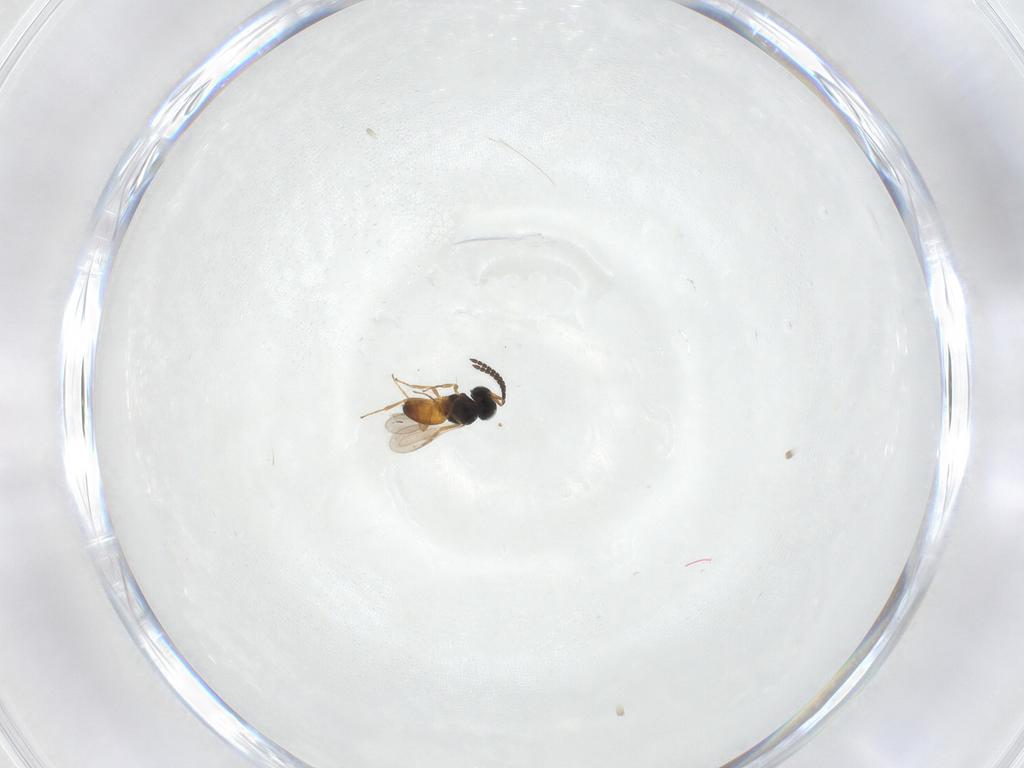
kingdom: Animalia
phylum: Arthropoda
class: Insecta
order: Hymenoptera
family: Scelionidae
